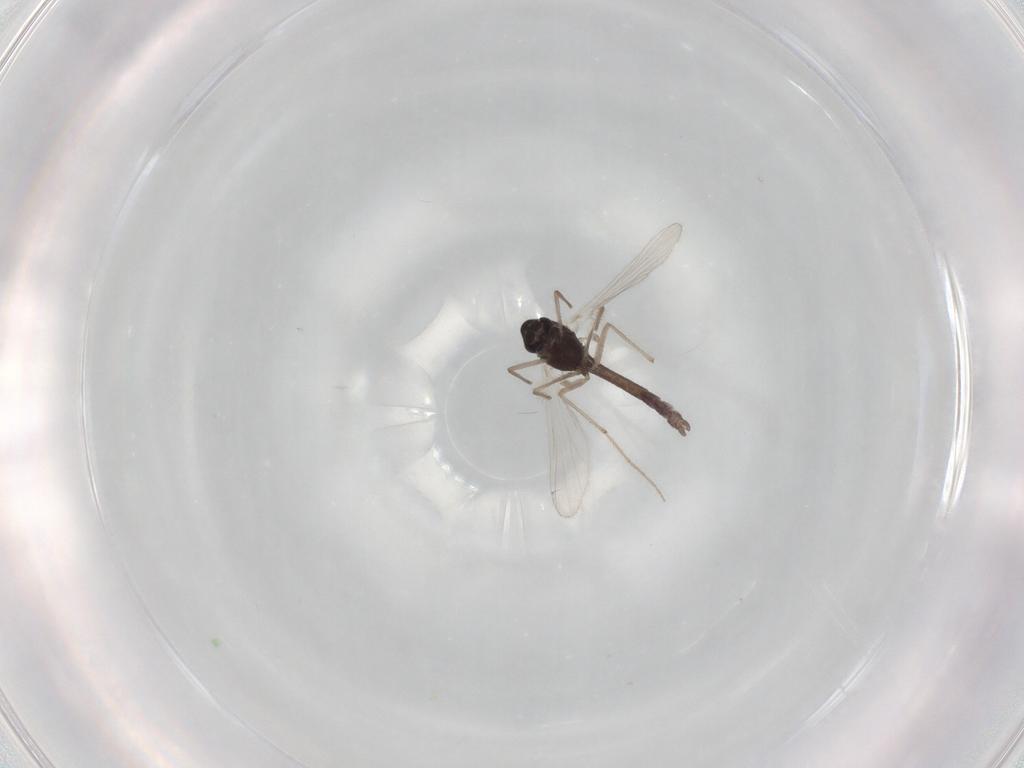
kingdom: Animalia
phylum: Arthropoda
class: Insecta
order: Diptera
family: Chironomidae
